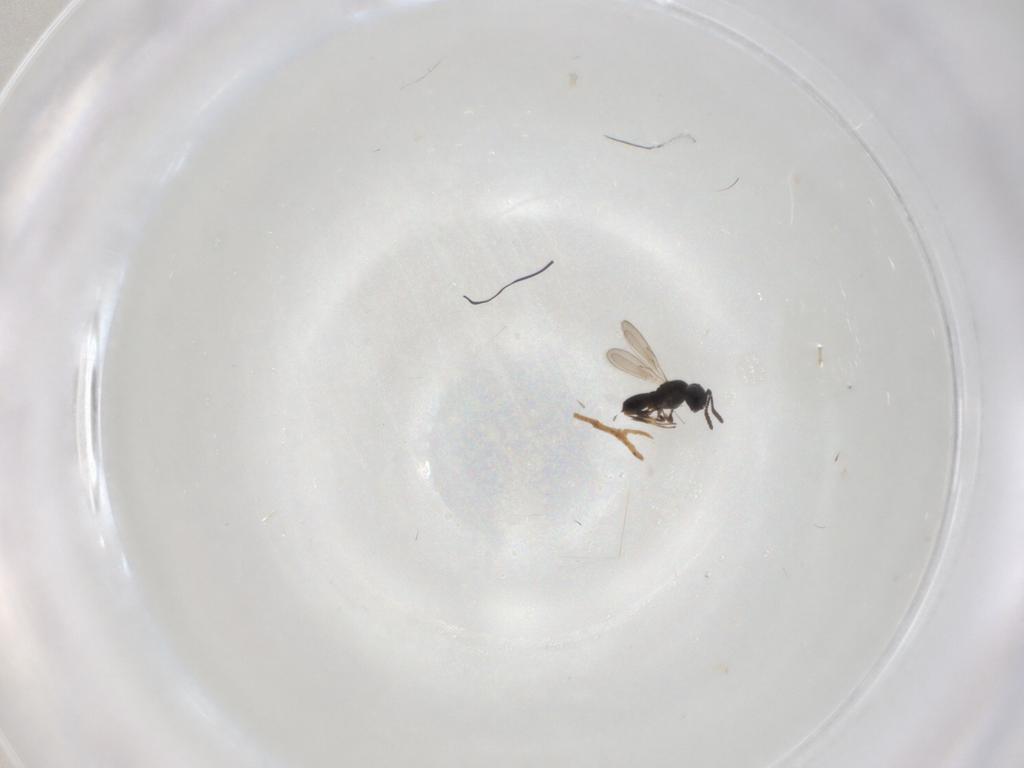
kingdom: Animalia
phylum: Arthropoda
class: Insecta
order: Hymenoptera
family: Scelionidae
